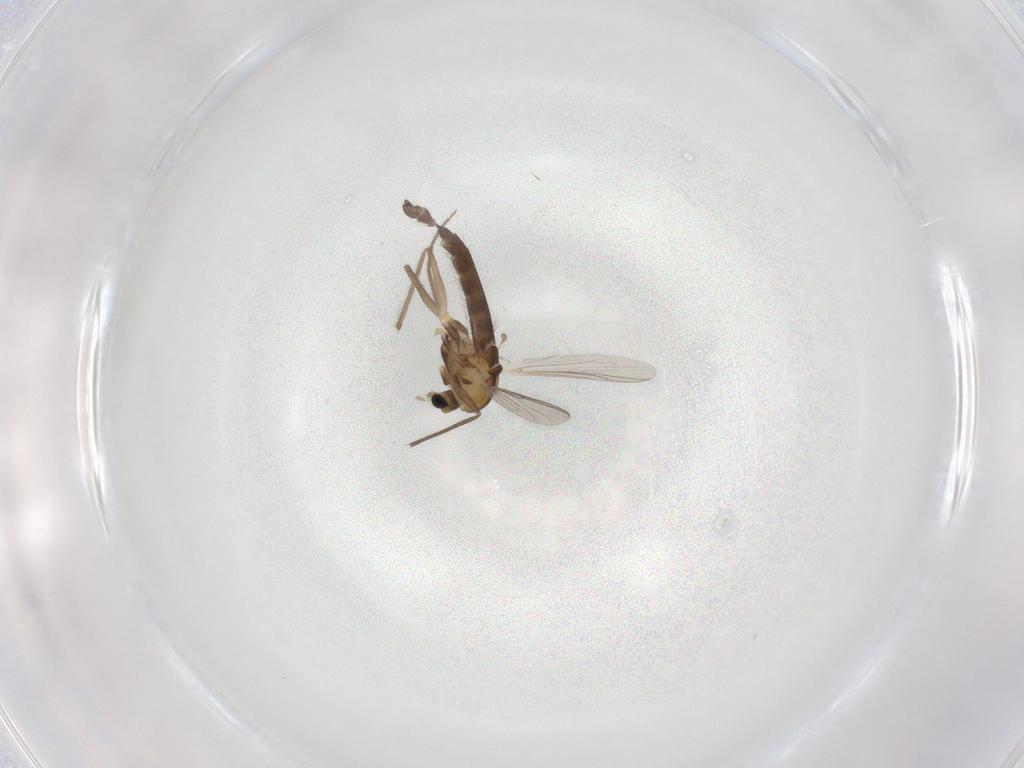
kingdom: Animalia
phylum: Arthropoda
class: Insecta
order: Diptera
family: Chironomidae
